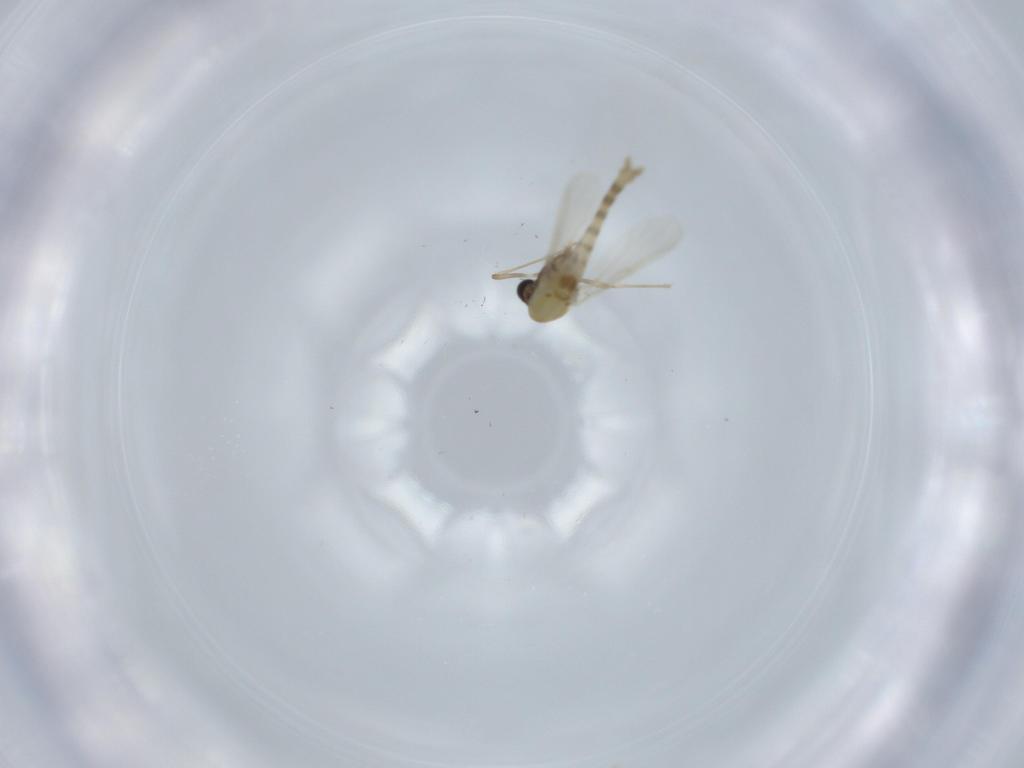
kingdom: Animalia
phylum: Arthropoda
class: Insecta
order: Diptera
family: Chironomidae
